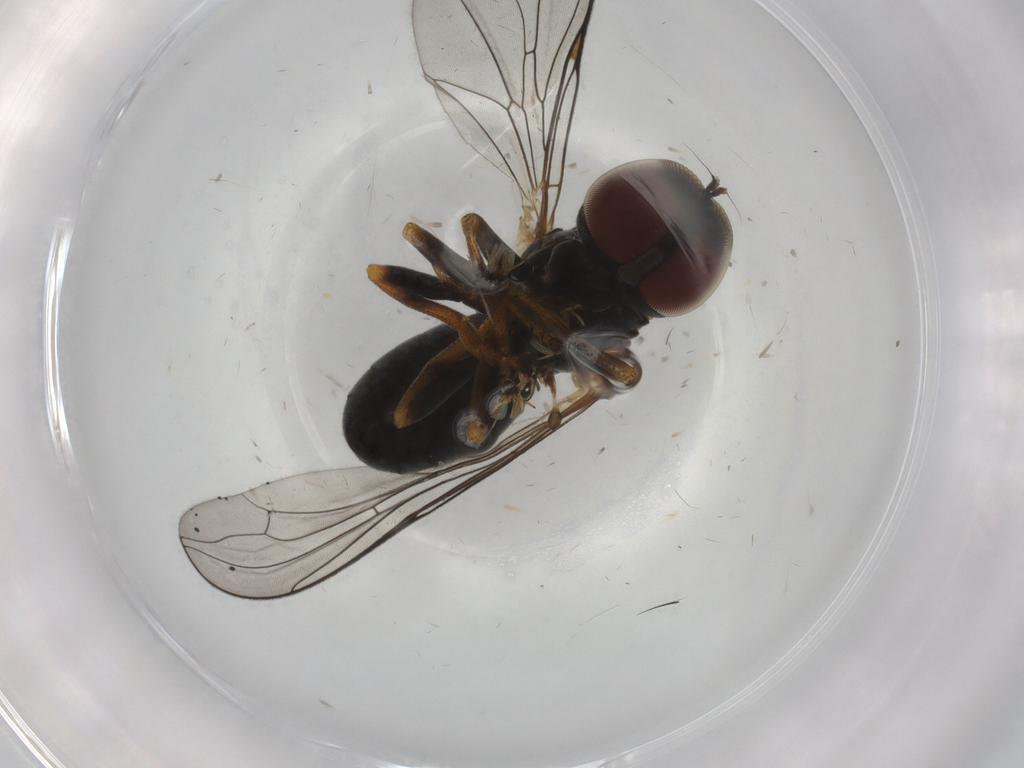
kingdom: Animalia
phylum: Arthropoda
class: Insecta
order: Diptera
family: Pipunculidae
